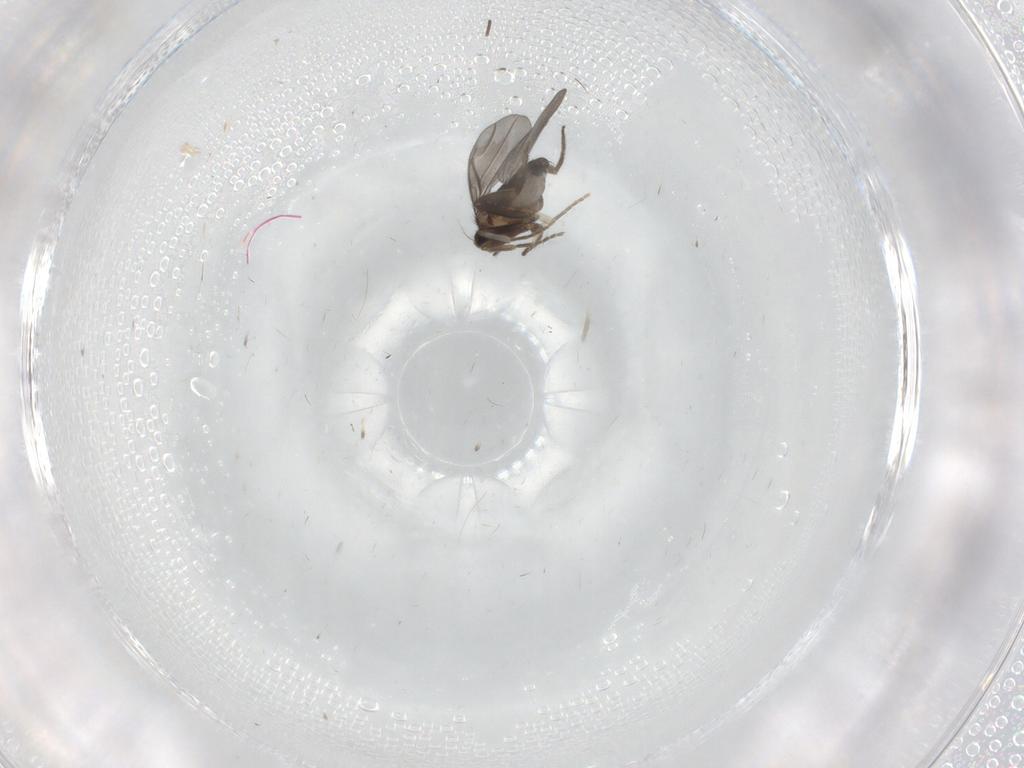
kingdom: Animalia
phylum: Arthropoda
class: Insecta
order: Diptera
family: Phoridae
